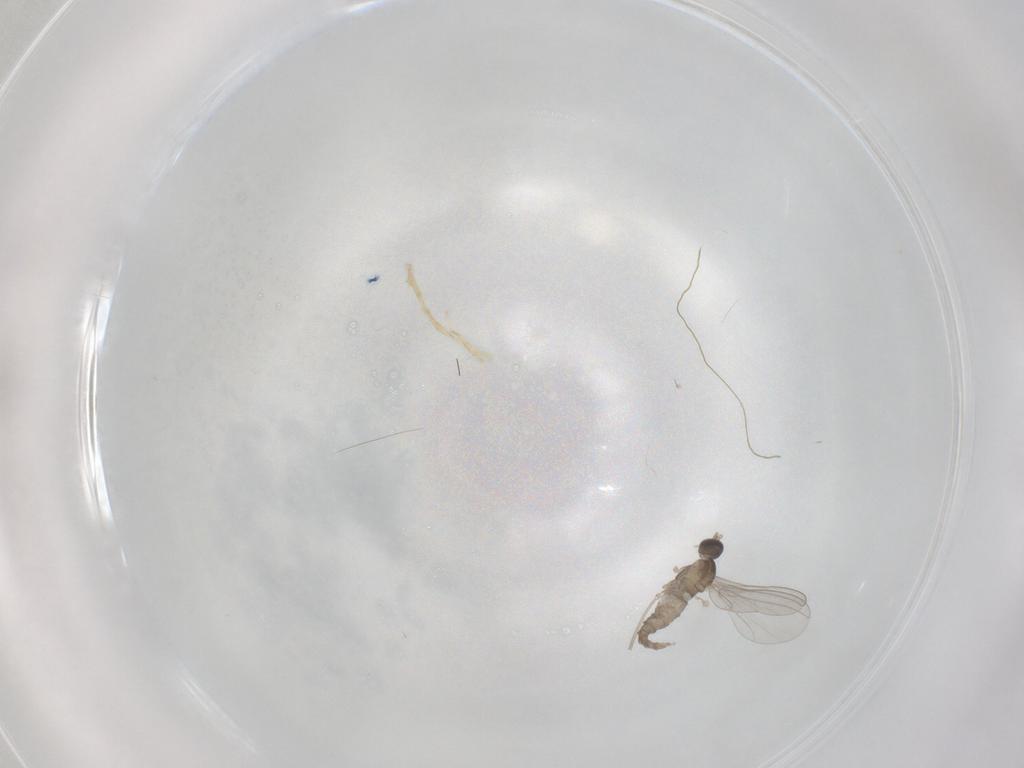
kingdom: Animalia
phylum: Arthropoda
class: Insecta
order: Diptera
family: Cecidomyiidae
